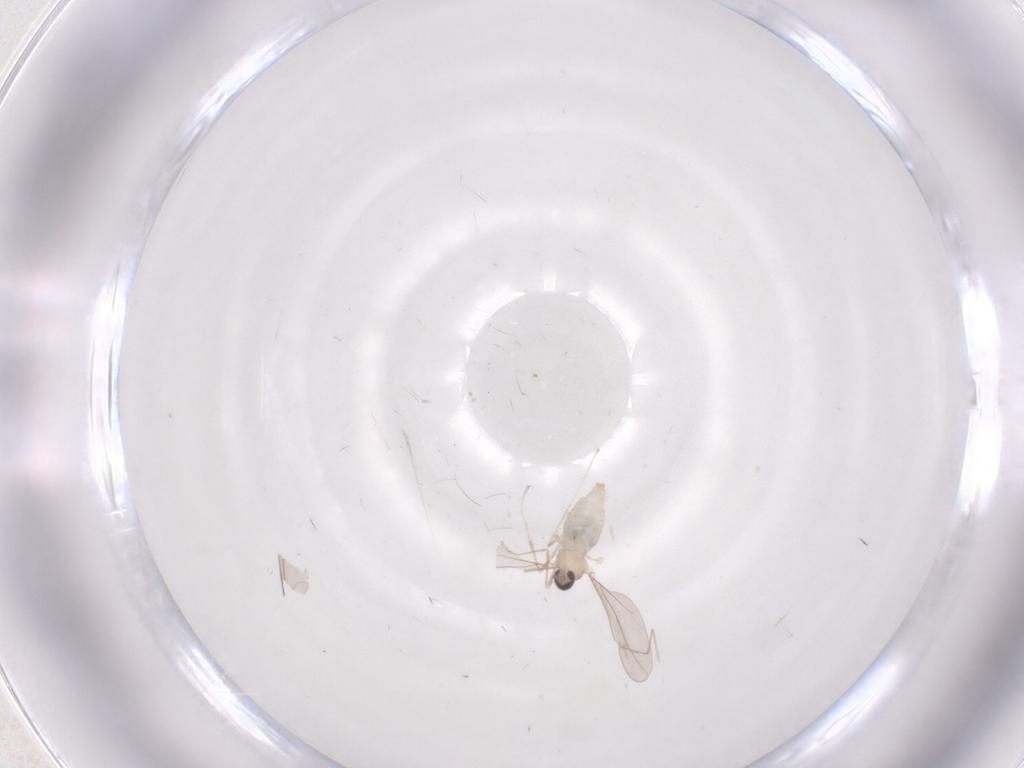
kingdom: Animalia
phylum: Arthropoda
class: Insecta
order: Diptera
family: Cecidomyiidae
